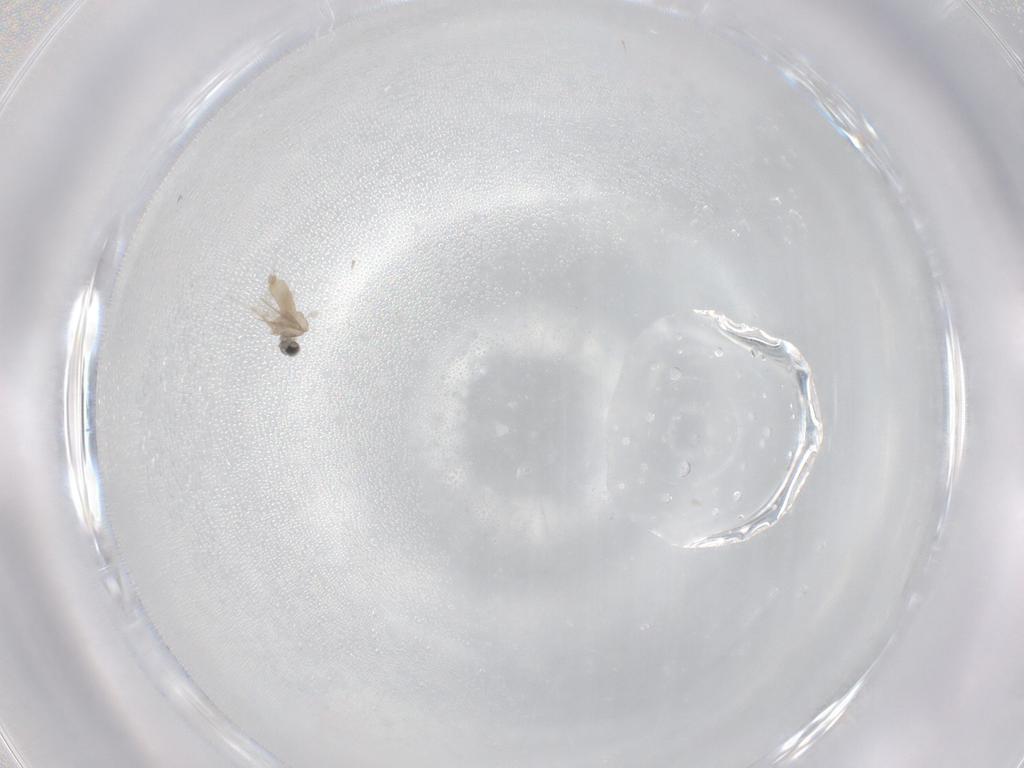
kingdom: Animalia
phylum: Arthropoda
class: Insecta
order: Diptera
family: Cecidomyiidae
